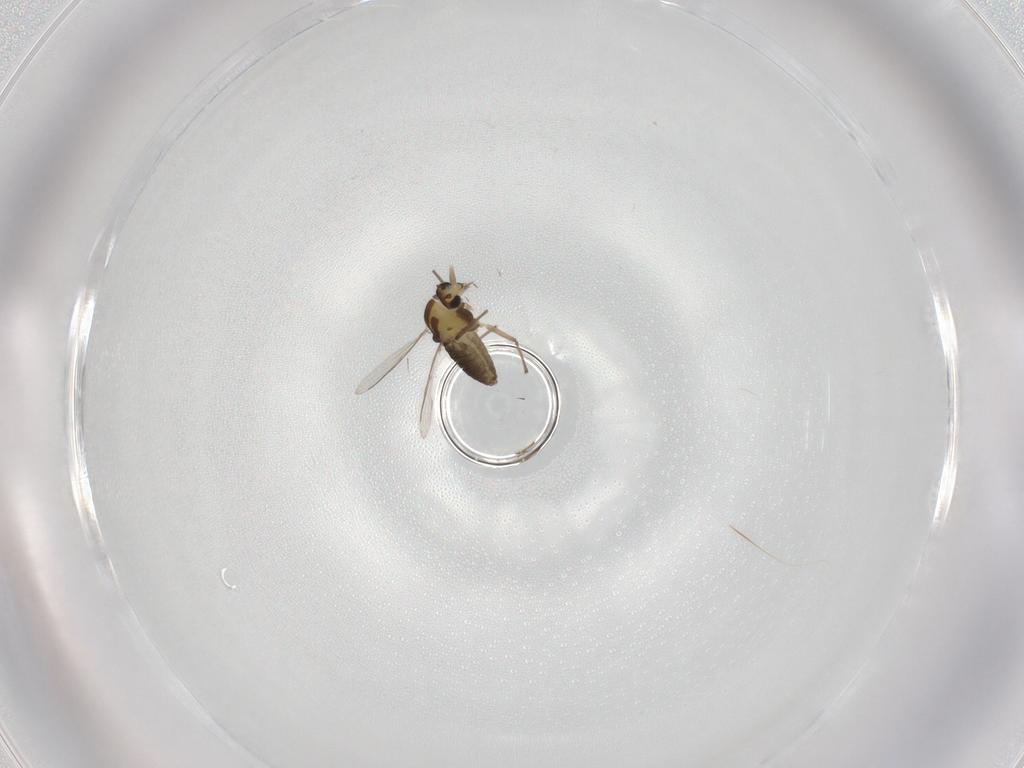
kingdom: Animalia
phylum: Arthropoda
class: Insecta
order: Diptera
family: Chironomidae
